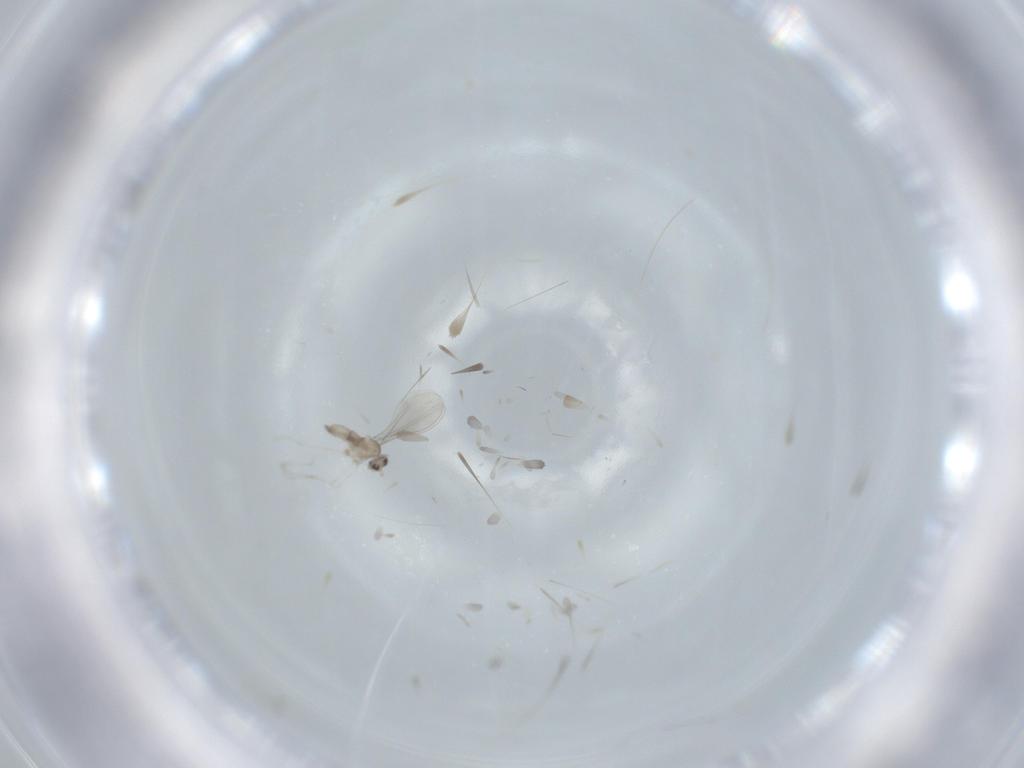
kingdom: Animalia
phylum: Arthropoda
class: Insecta
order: Diptera
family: Cecidomyiidae
